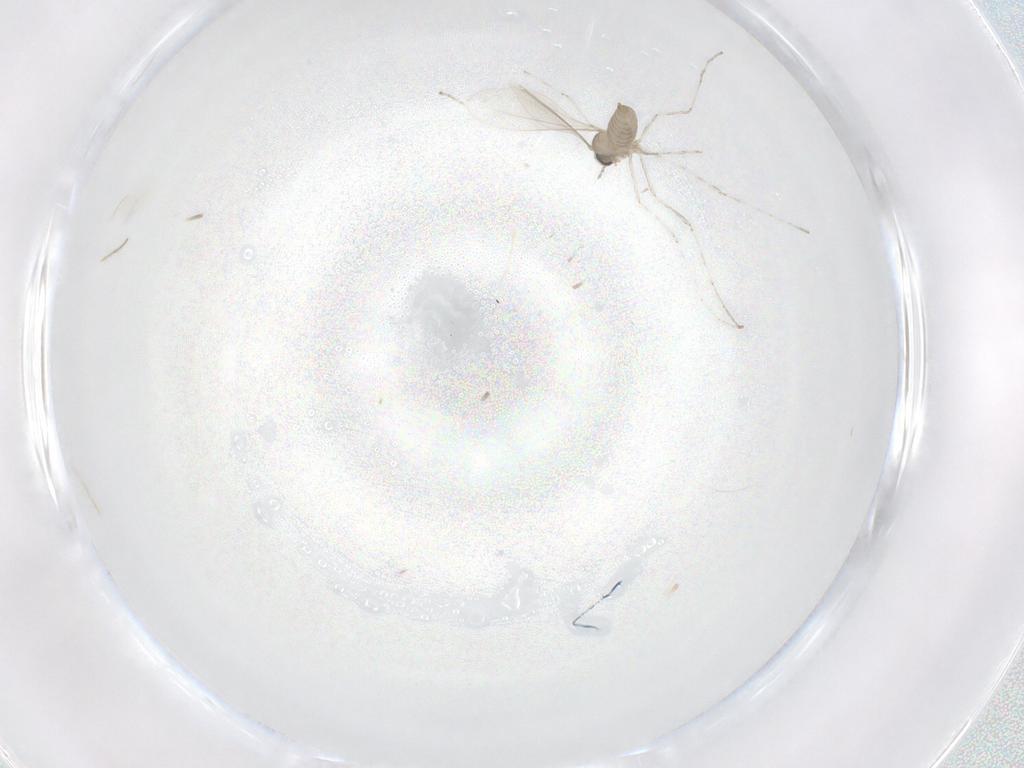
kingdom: Animalia
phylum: Arthropoda
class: Insecta
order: Diptera
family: Cecidomyiidae
